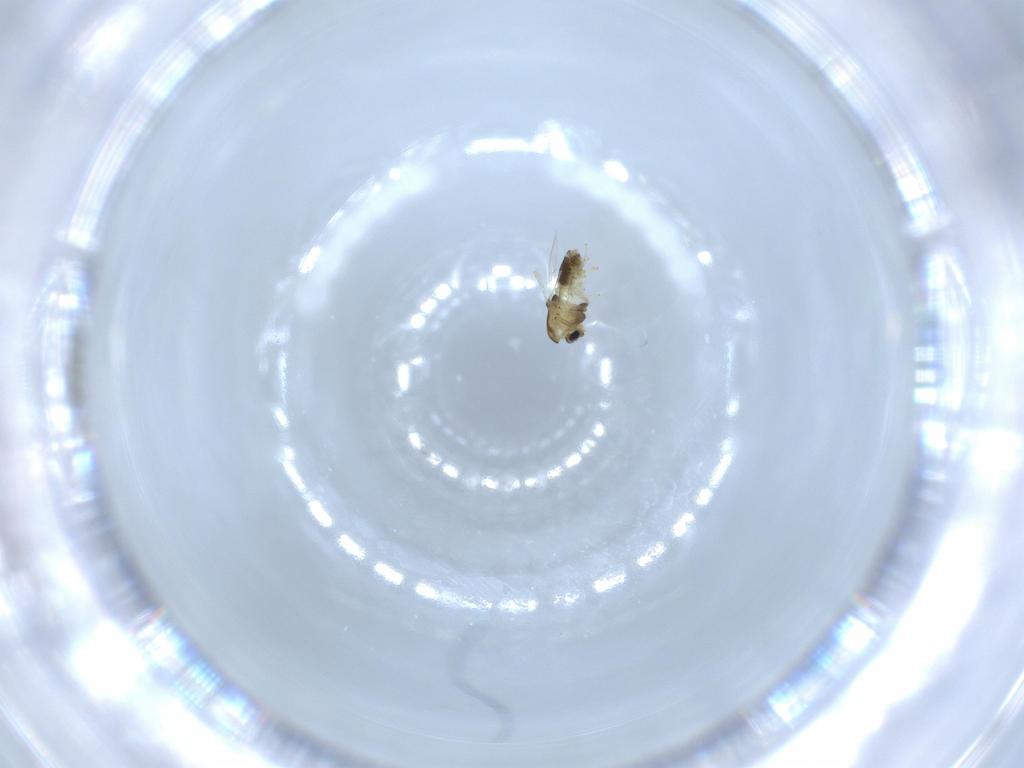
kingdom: Animalia
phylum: Arthropoda
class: Insecta
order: Diptera
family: Chironomidae
